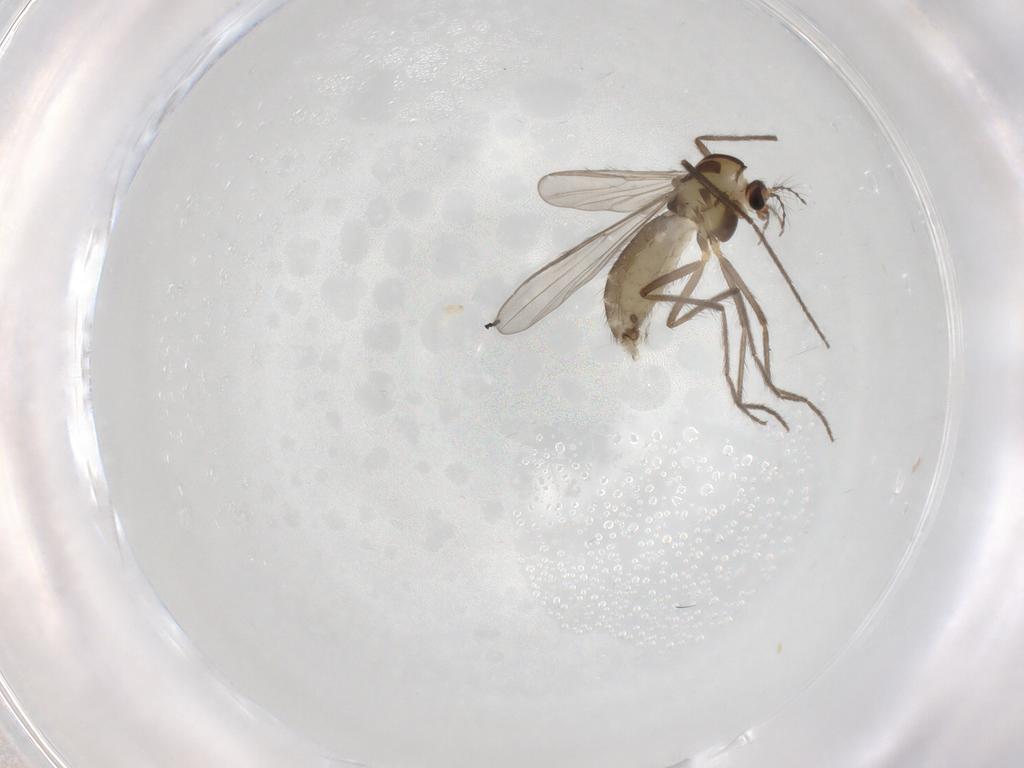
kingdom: Animalia
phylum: Arthropoda
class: Insecta
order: Diptera
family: Chironomidae
